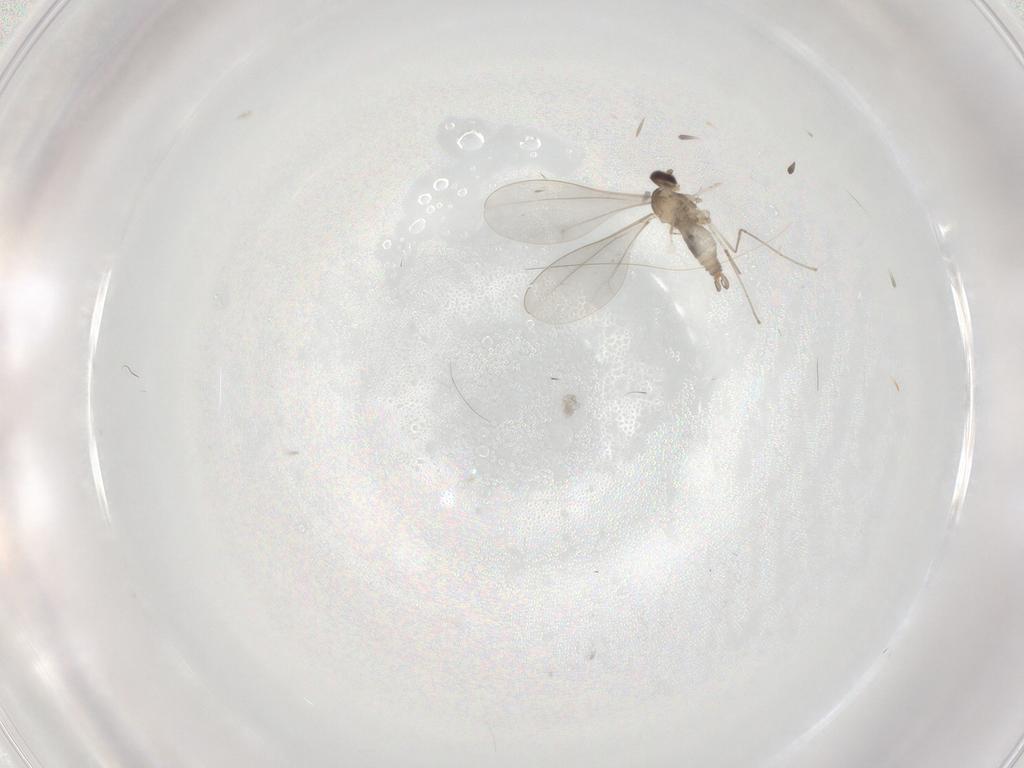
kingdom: Animalia
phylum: Arthropoda
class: Insecta
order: Diptera
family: Cecidomyiidae
